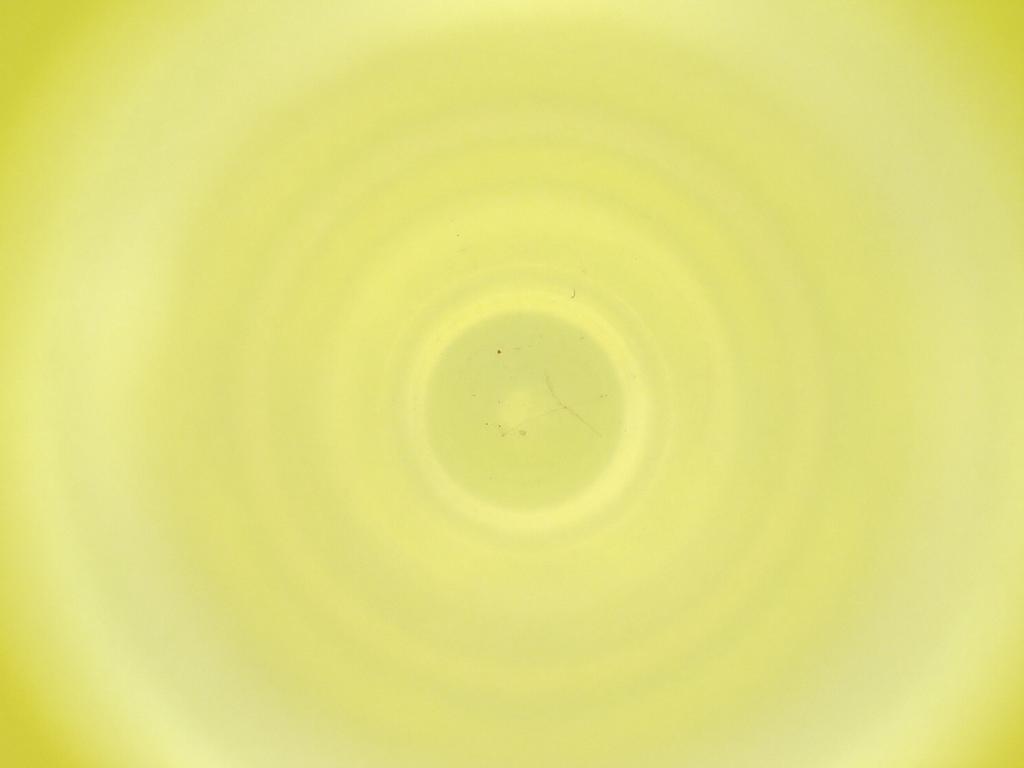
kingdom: Animalia
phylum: Arthropoda
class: Insecta
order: Diptera
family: Cecidomyiidae
